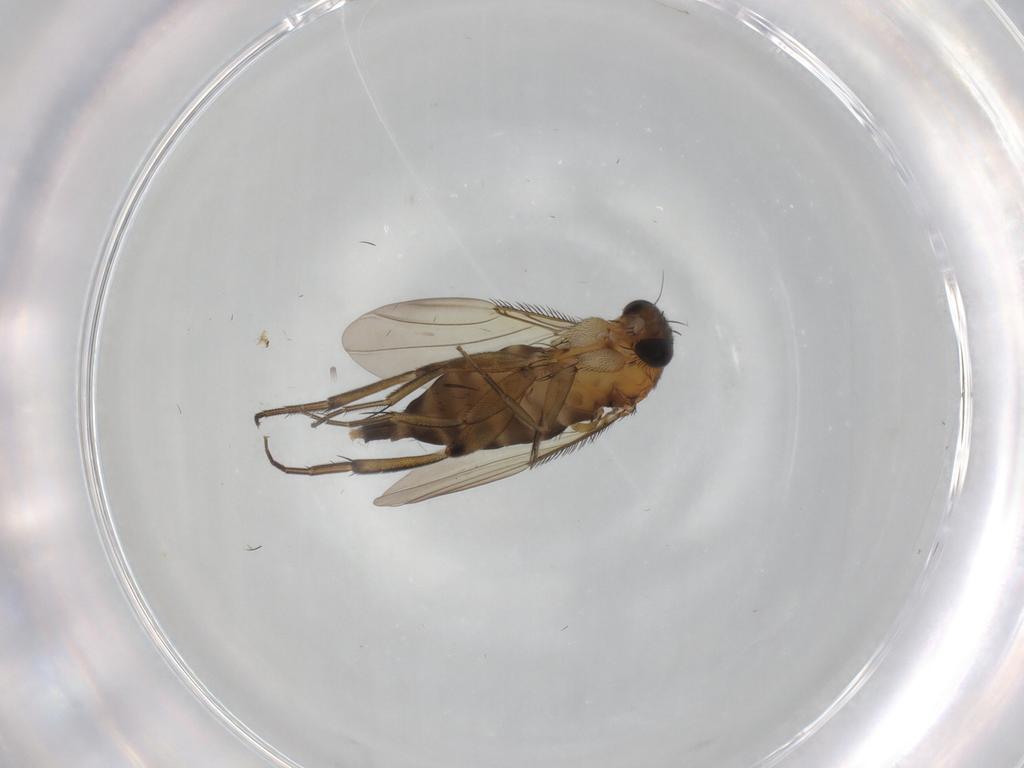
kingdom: Animalia
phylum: Arthropoda
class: Insecta
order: Diptera
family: Phoridae
